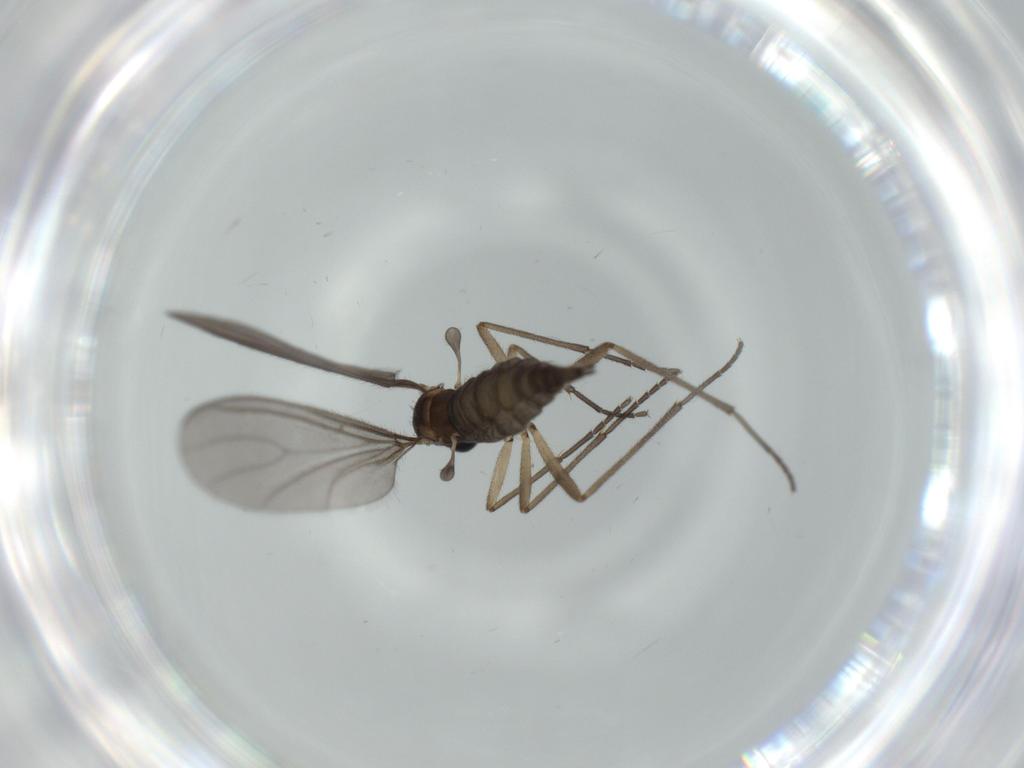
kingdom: Animalia
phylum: Arthropoda
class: Insecta
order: Diptera
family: Sciaridae
